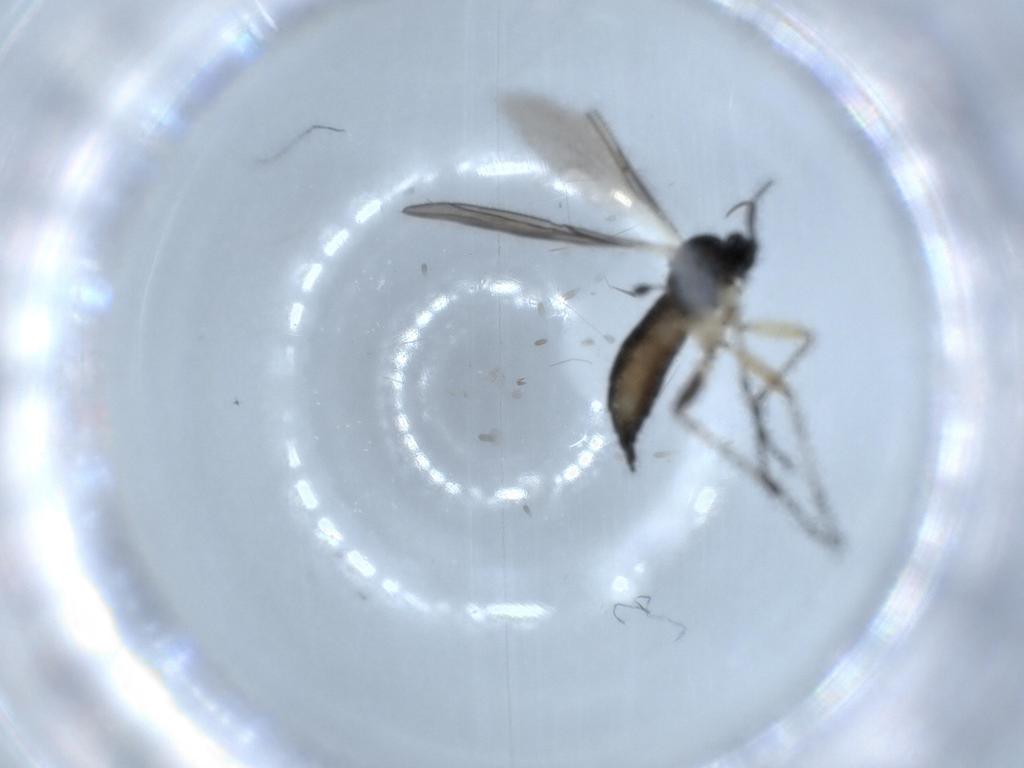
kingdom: Animalia
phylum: Arthropoda
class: Insecta
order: Diptera
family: Sciaridae
